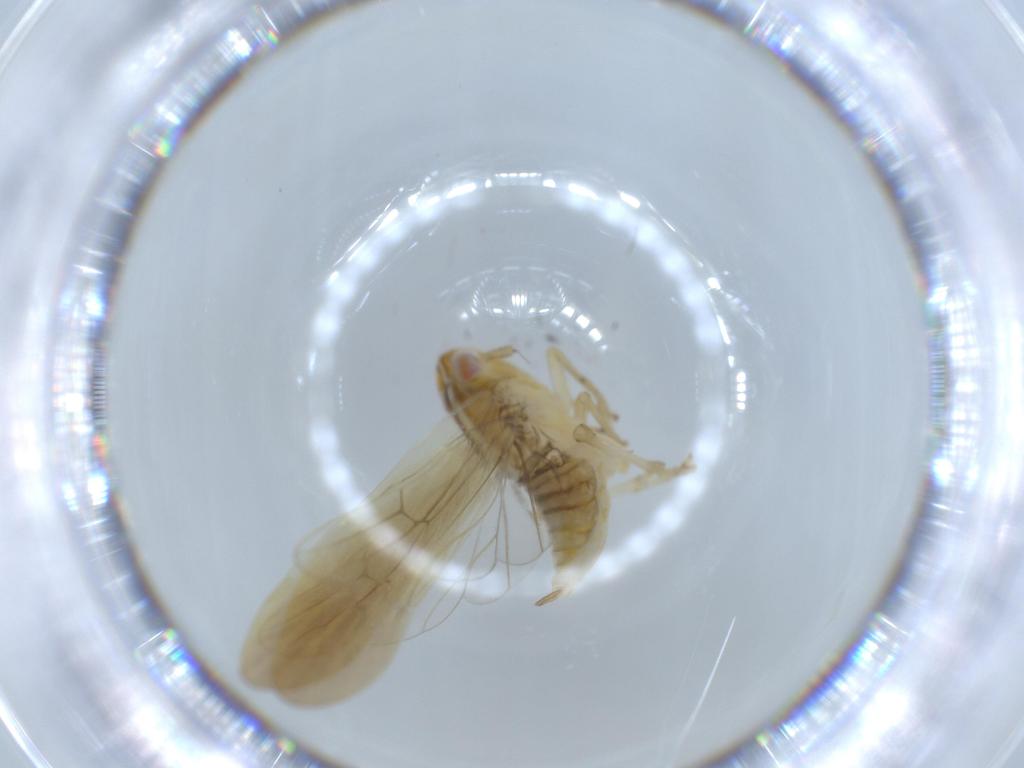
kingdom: Animalia
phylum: Arthropoda
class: Insecta
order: Hemiptera
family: Delphacidae
